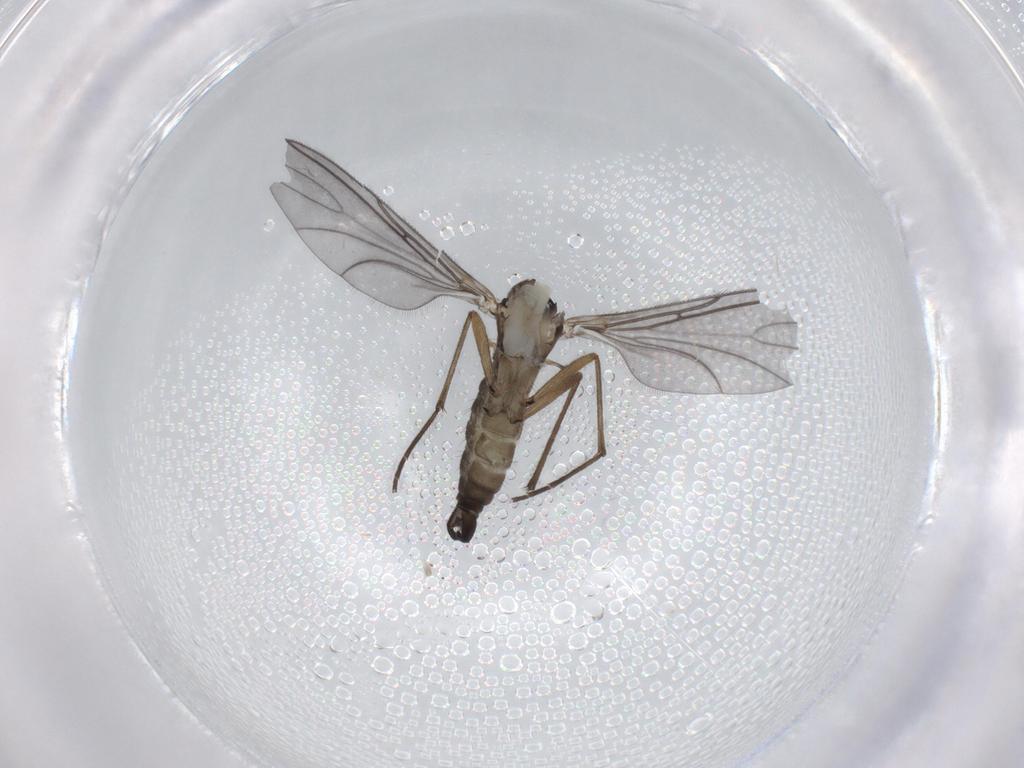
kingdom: Animalia
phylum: Arthropoda
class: Insecta
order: Diptera
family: Sciaridae
